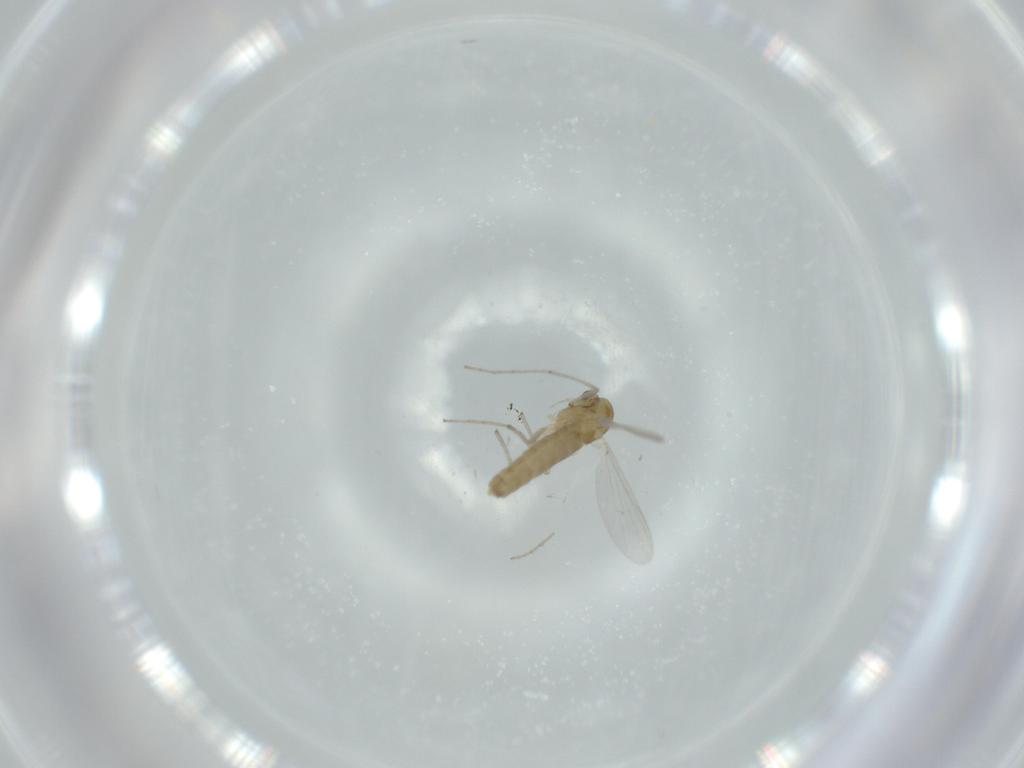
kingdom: Animalia
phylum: Arthropoda
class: Insecta
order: Diptera
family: Chironomidae
